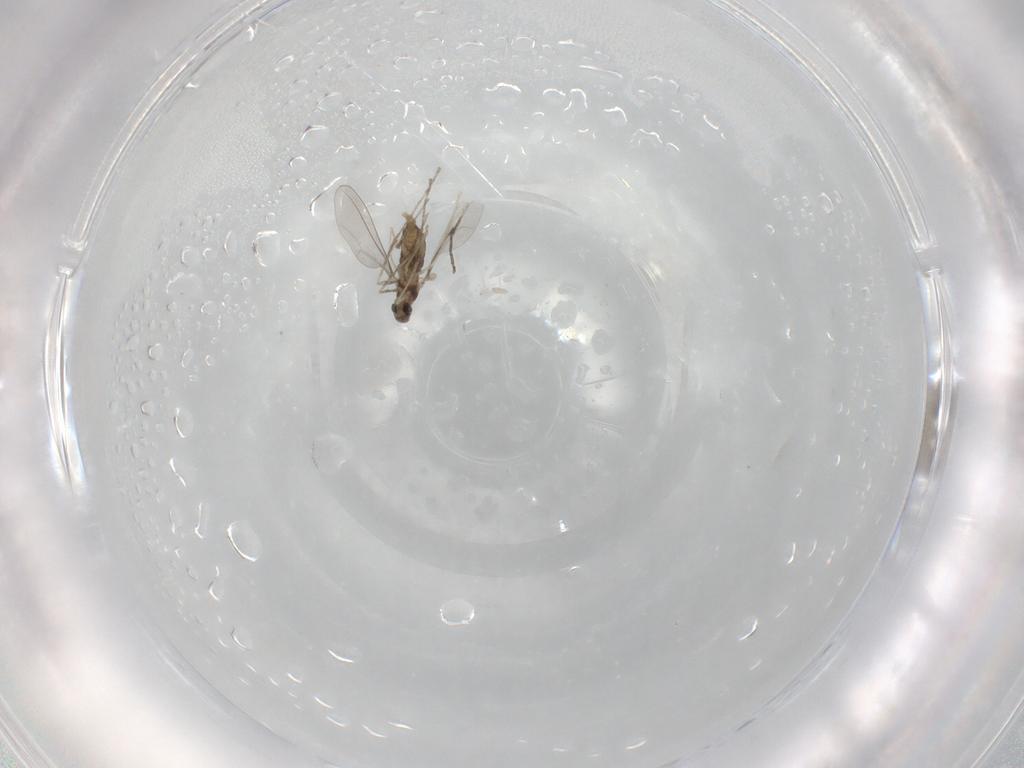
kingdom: Animalia
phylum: Arthropoda
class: Insecta
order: Diptera
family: Cecidomyiidae
